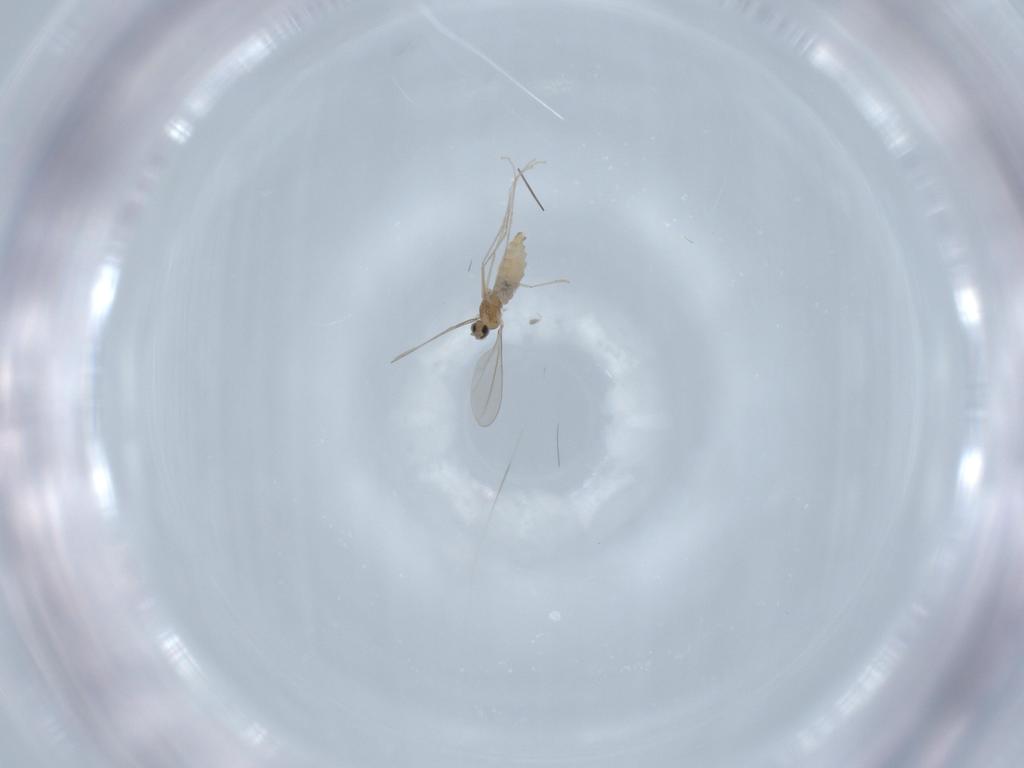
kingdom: Animalia
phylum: Arthropoda
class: Insecta
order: Diptera
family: Cecidomyiidae
